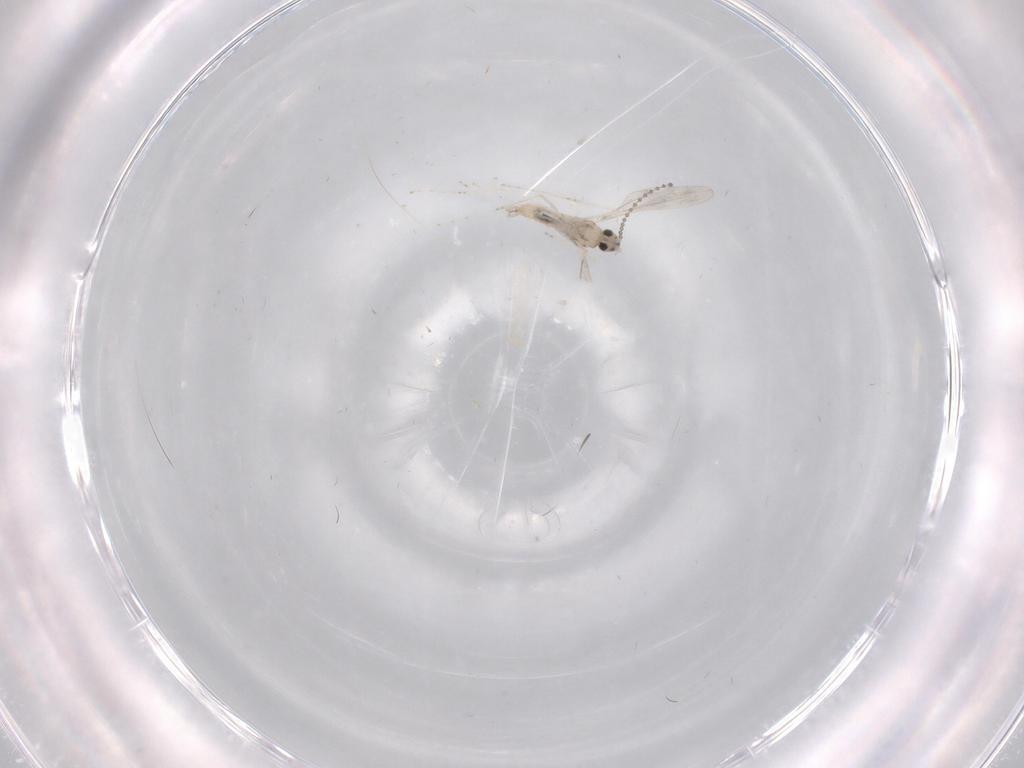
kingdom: Animalia
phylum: Arthropoda
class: Insecta
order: Diptera
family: Cecidomyiidae
